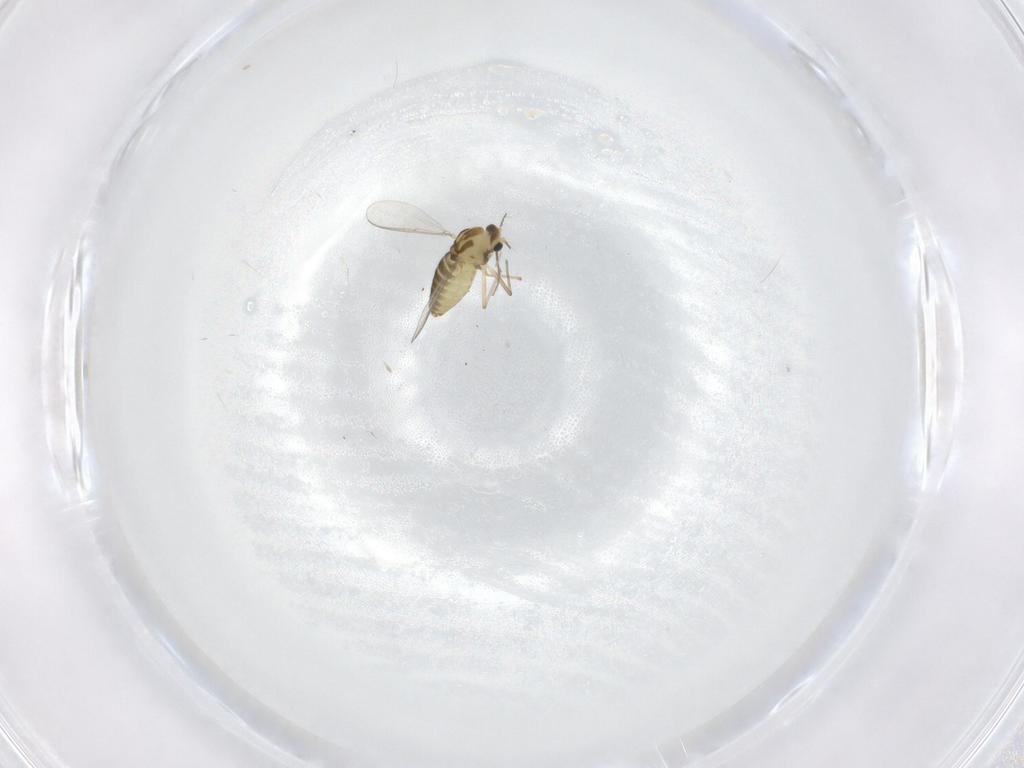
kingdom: Animalia
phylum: Arthropoda
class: Insecta
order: Diptera
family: Chironomidae
